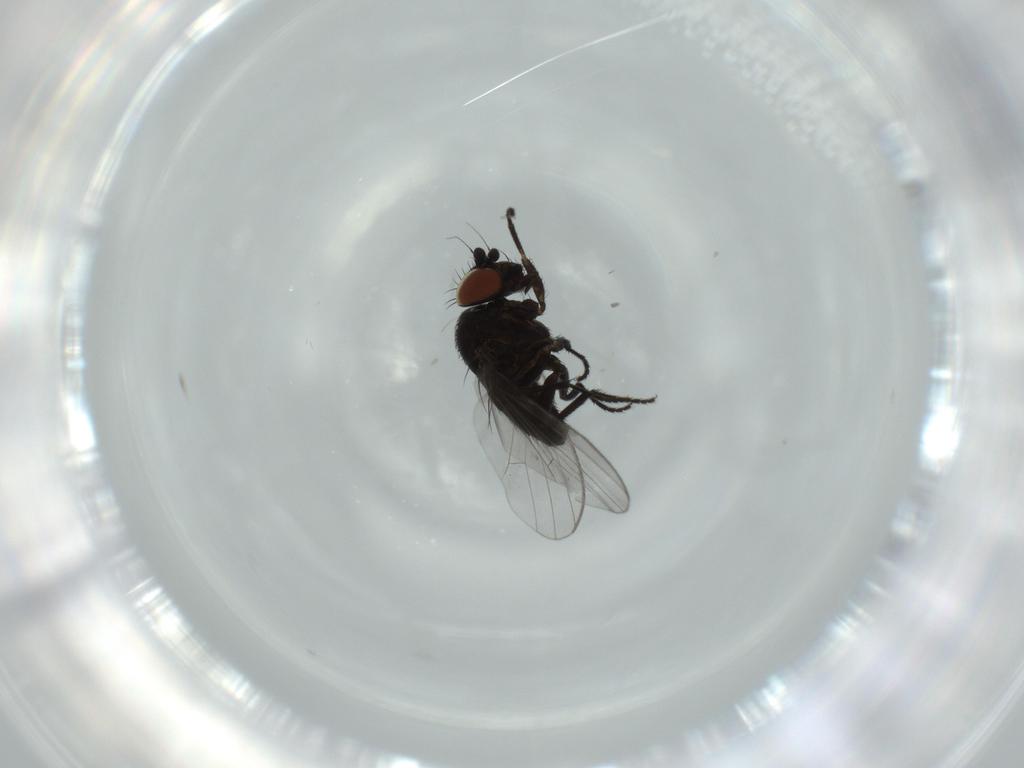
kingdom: Animalia
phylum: Arthropoda
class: Insecta
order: Diptera
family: Milichiidae
